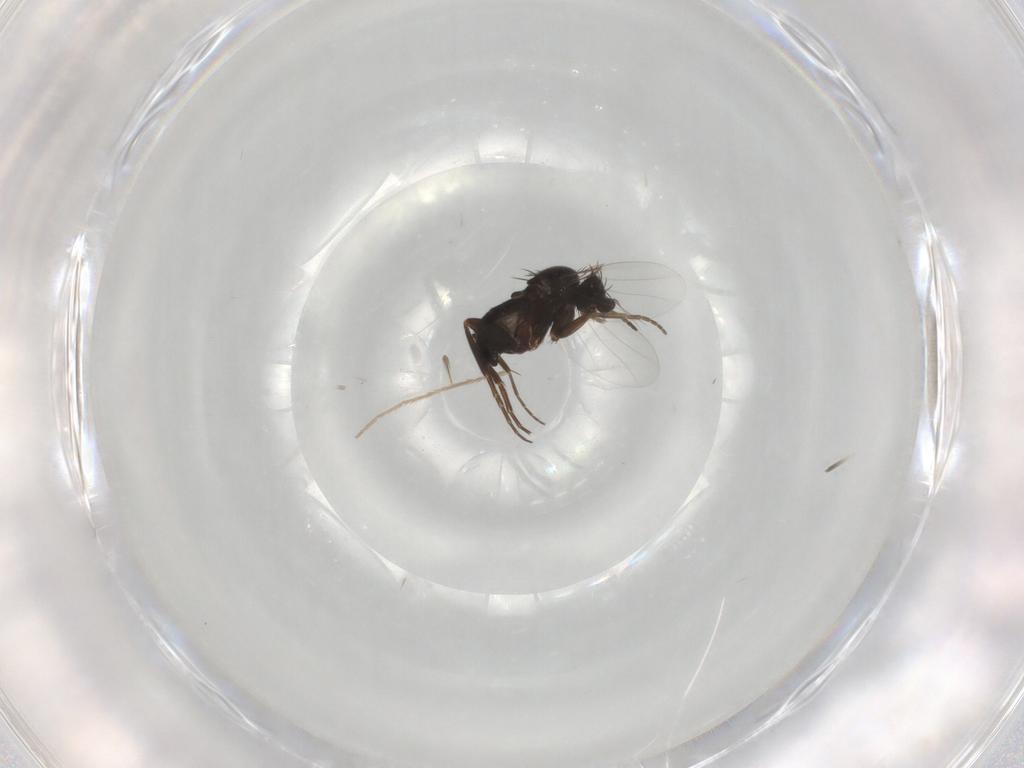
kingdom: Animalia
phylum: Arthropoda
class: Insecta
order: Diptera
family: Phoridae
